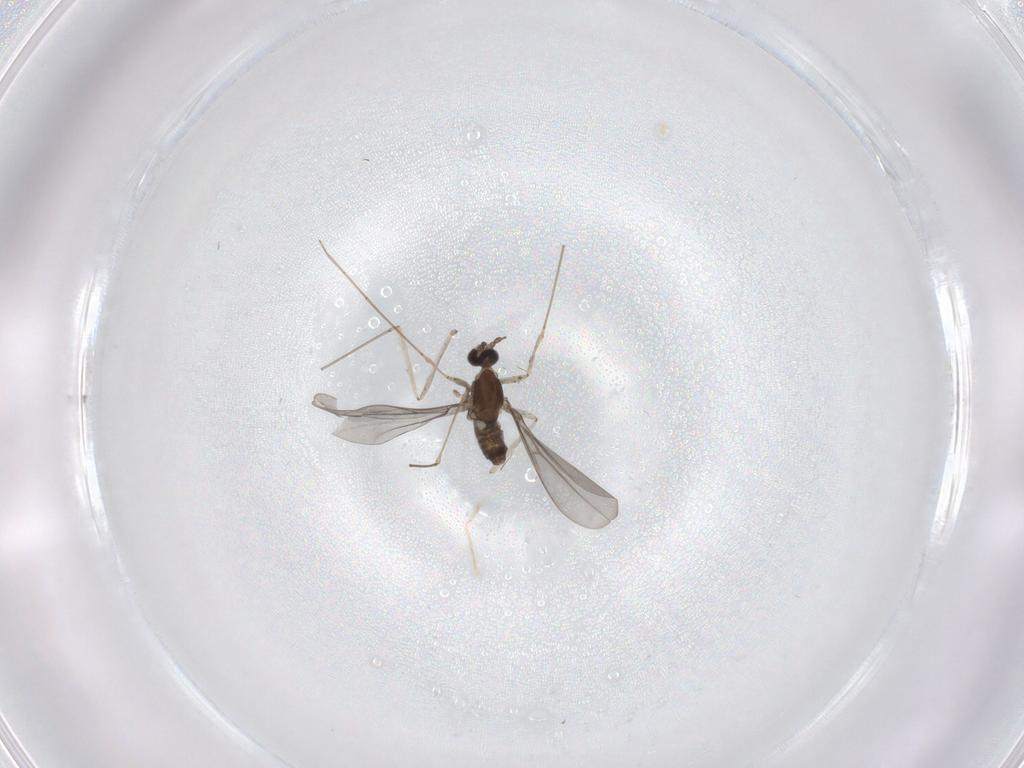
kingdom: Animalia
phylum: Arthropoda
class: Insecta
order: Diptera
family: Cecidomyiidae
